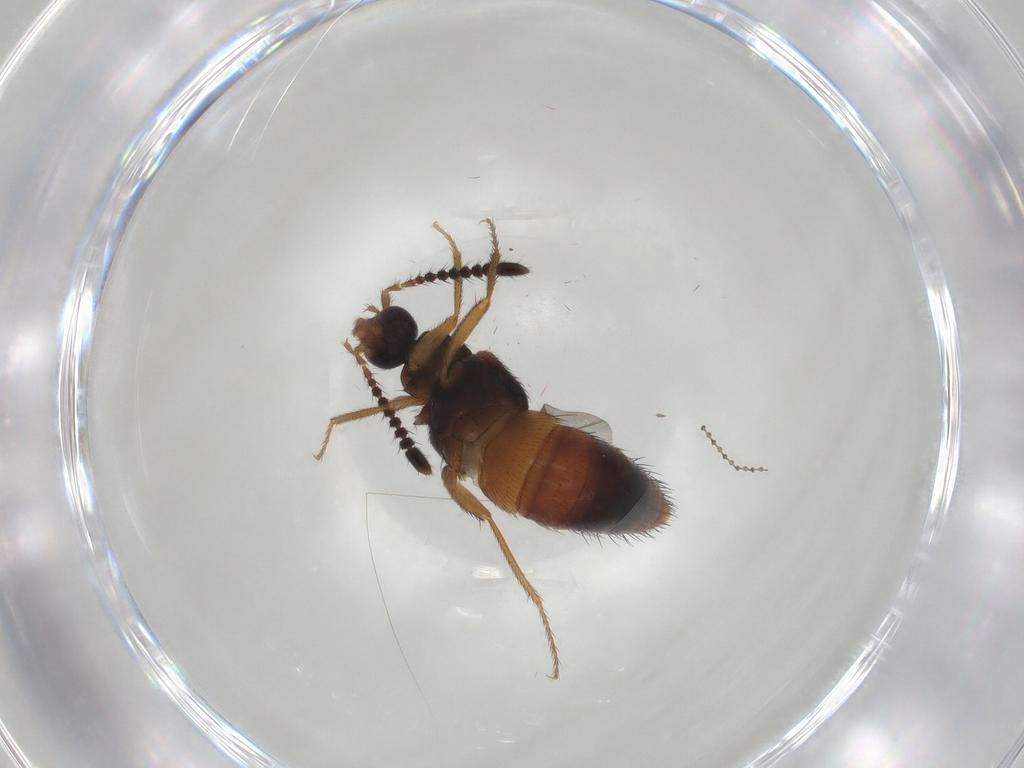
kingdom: Animalia
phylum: Arthropoda
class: Insecta
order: Coleoptera
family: Staphylinidae
